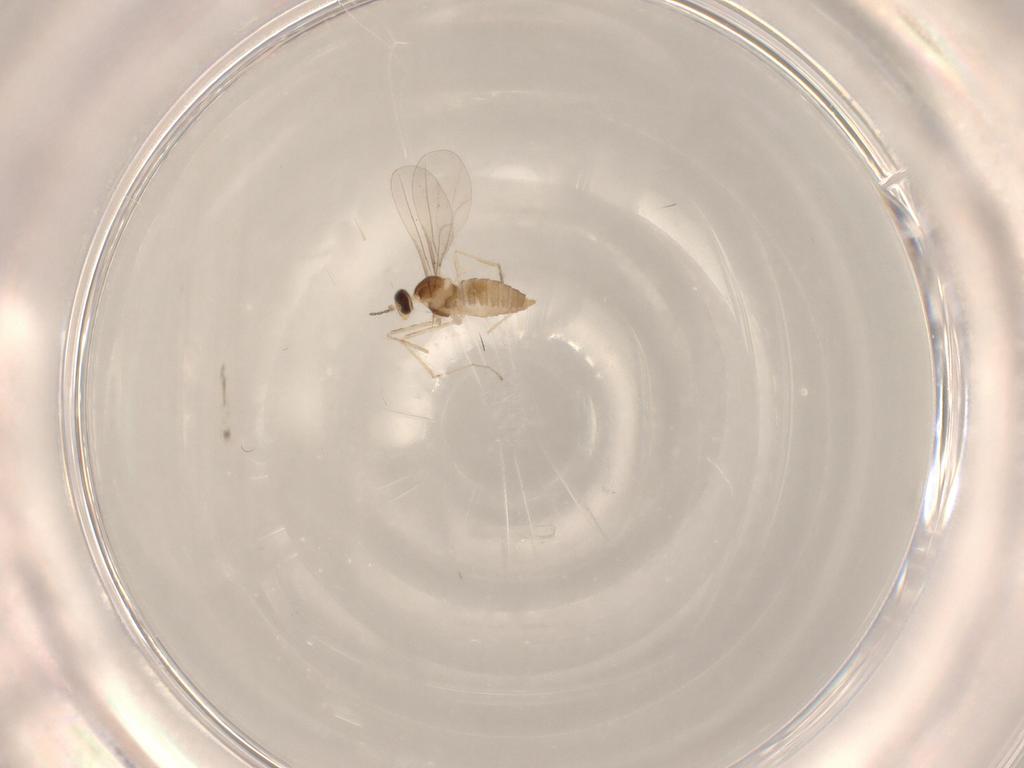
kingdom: Animalia
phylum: Arthropoda
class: Insecta
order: Diptera
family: Cecidomyiidae
